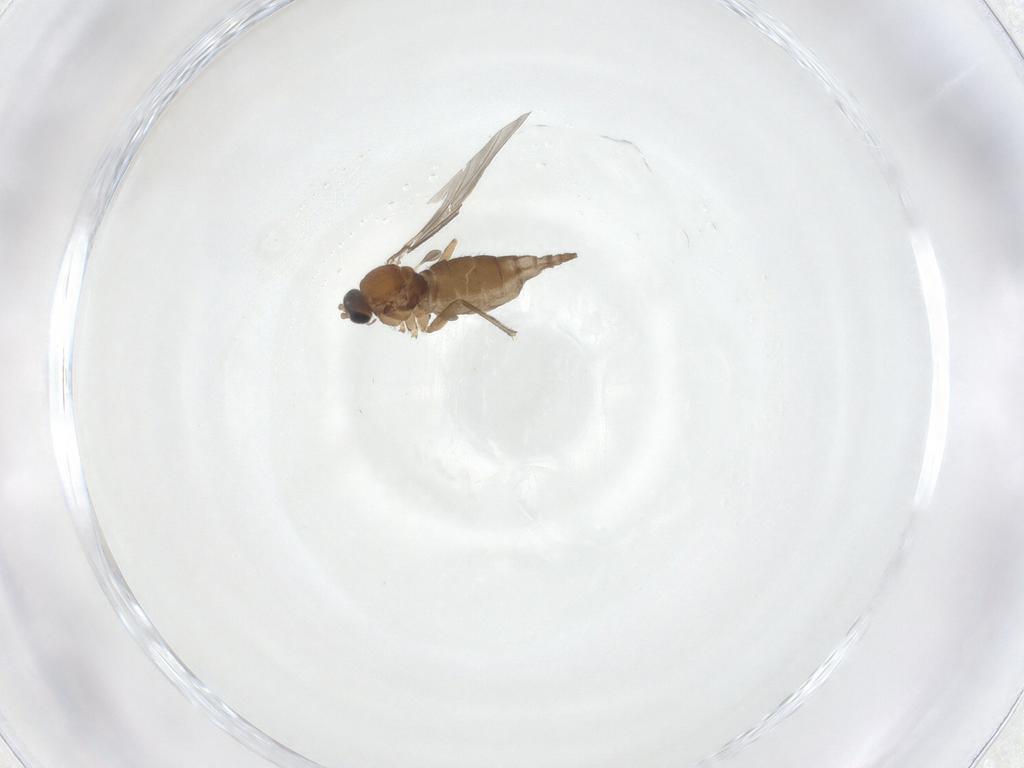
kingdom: Animalia
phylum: Arthropoda
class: Insecta
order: Diptera
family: Sciaridae
